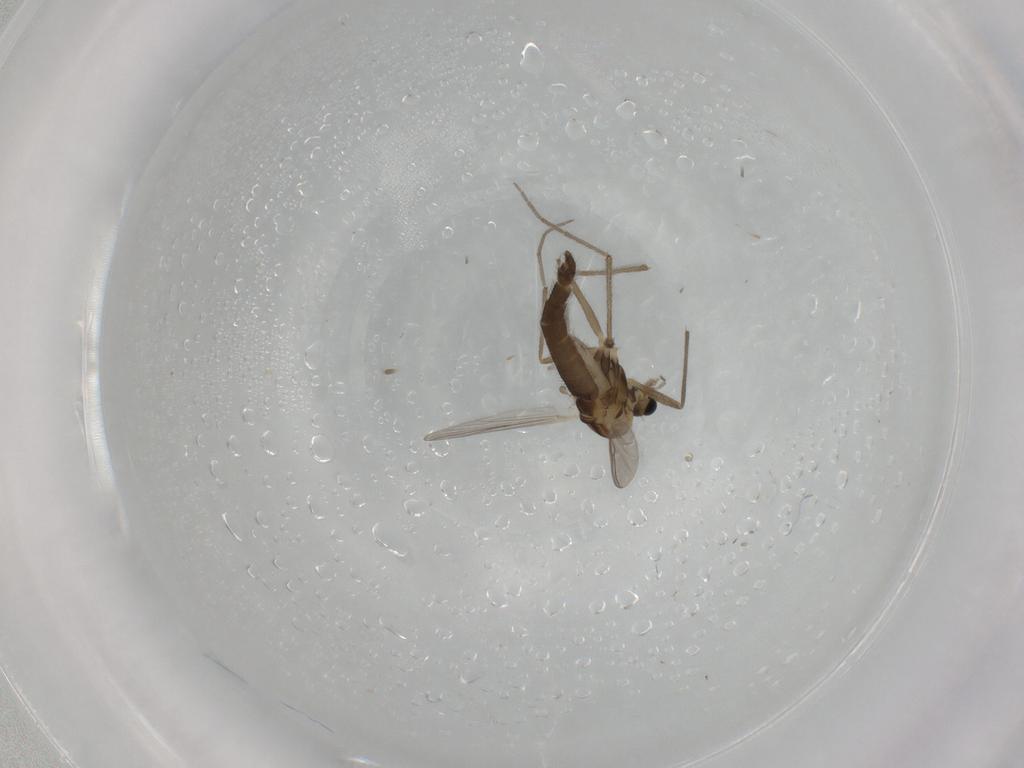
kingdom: Animalia
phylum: Arthropoda
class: Insecta
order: Diptera
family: Chironomidae
